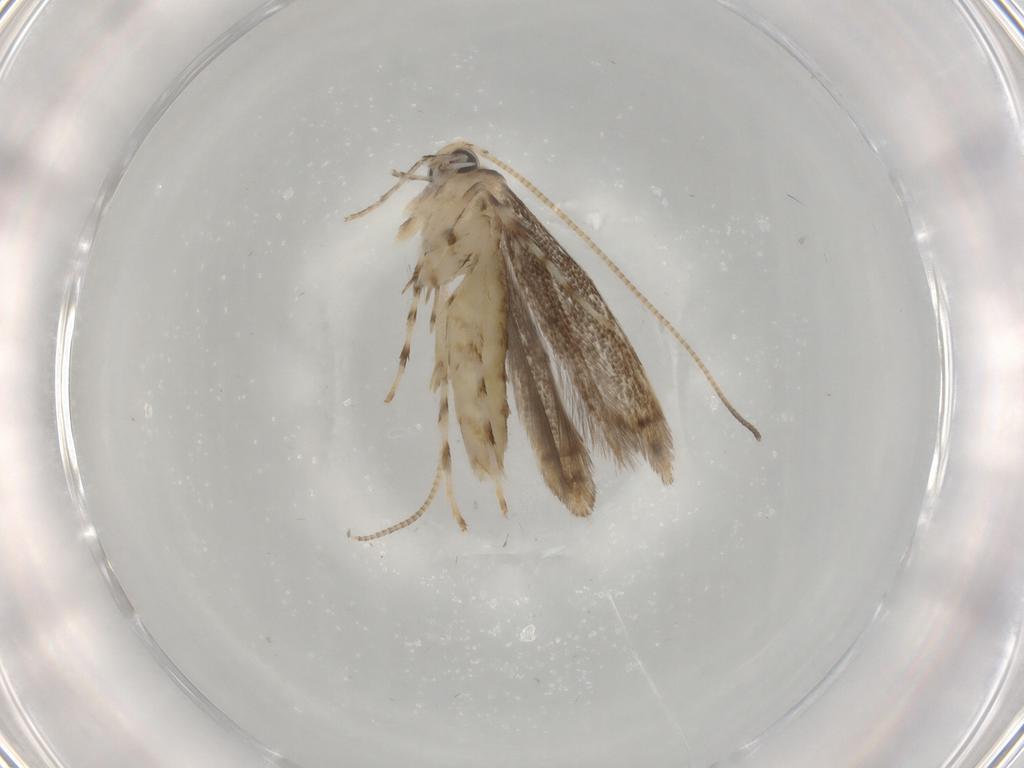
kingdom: Animalia
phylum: Arthropoda
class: Insecta
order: Lepidoptera
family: Gracillariidae
